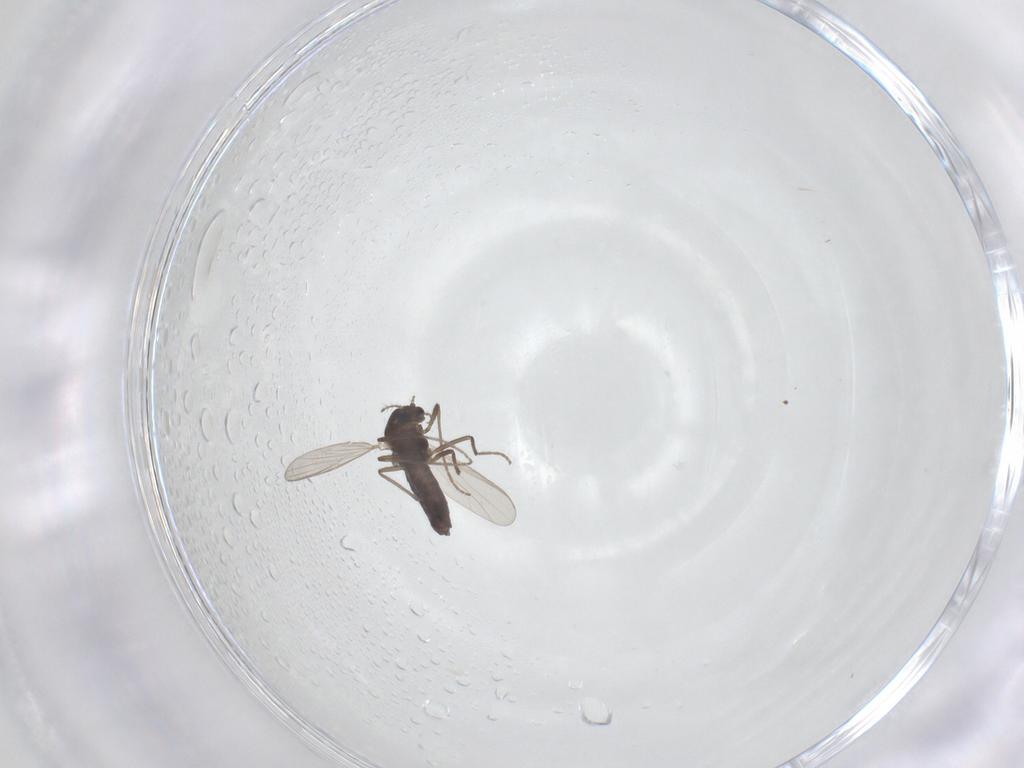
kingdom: Animalia
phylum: Arthropoda
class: Insecta
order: Diptera
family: Chironomidae
